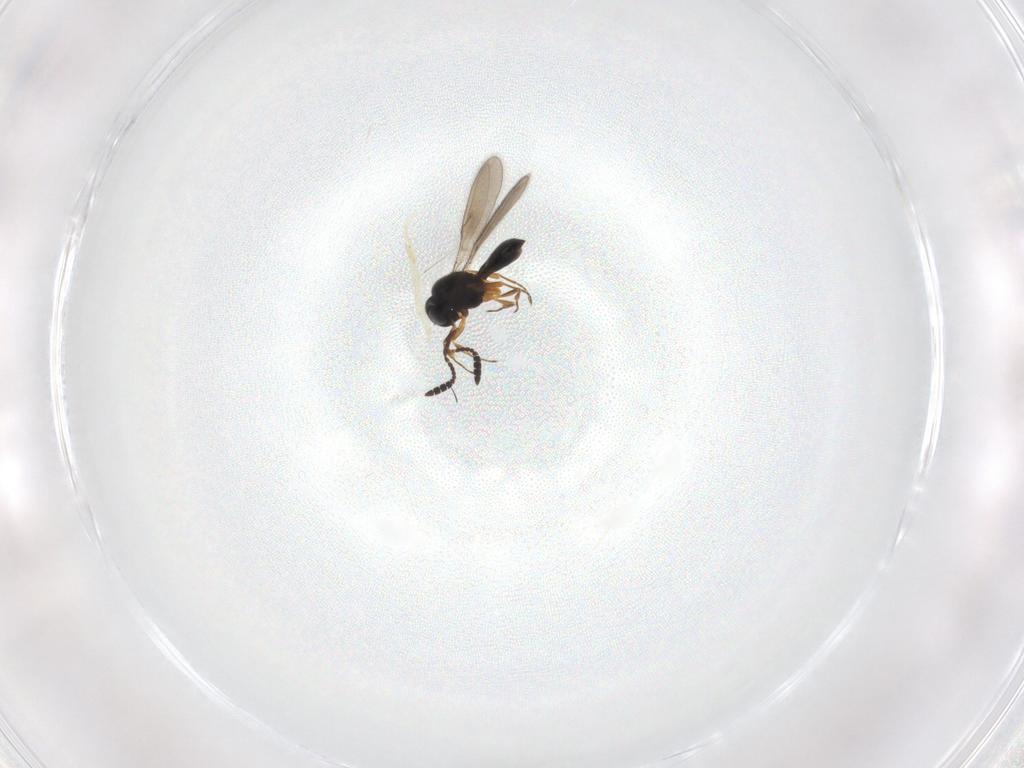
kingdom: Animalia
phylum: Arthropoda
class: Insecta
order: Hymenoptera
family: Scelionidae
